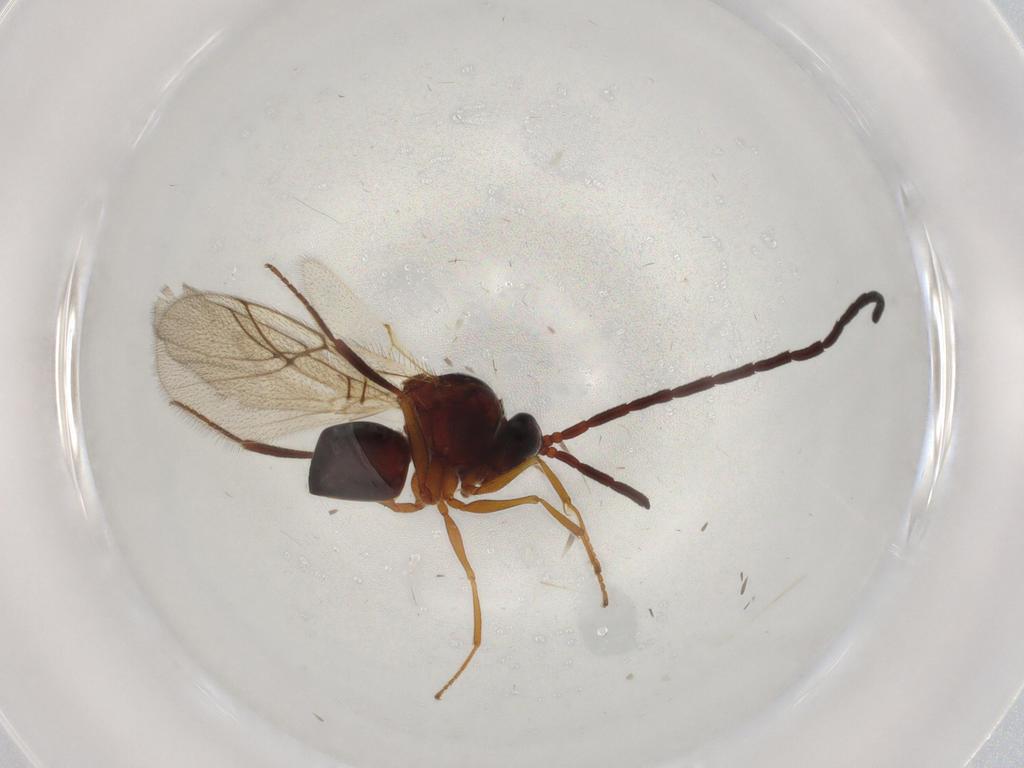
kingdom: Animalia
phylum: Arthropoda
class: Insecta
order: Hymenoptera
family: Figitidae
